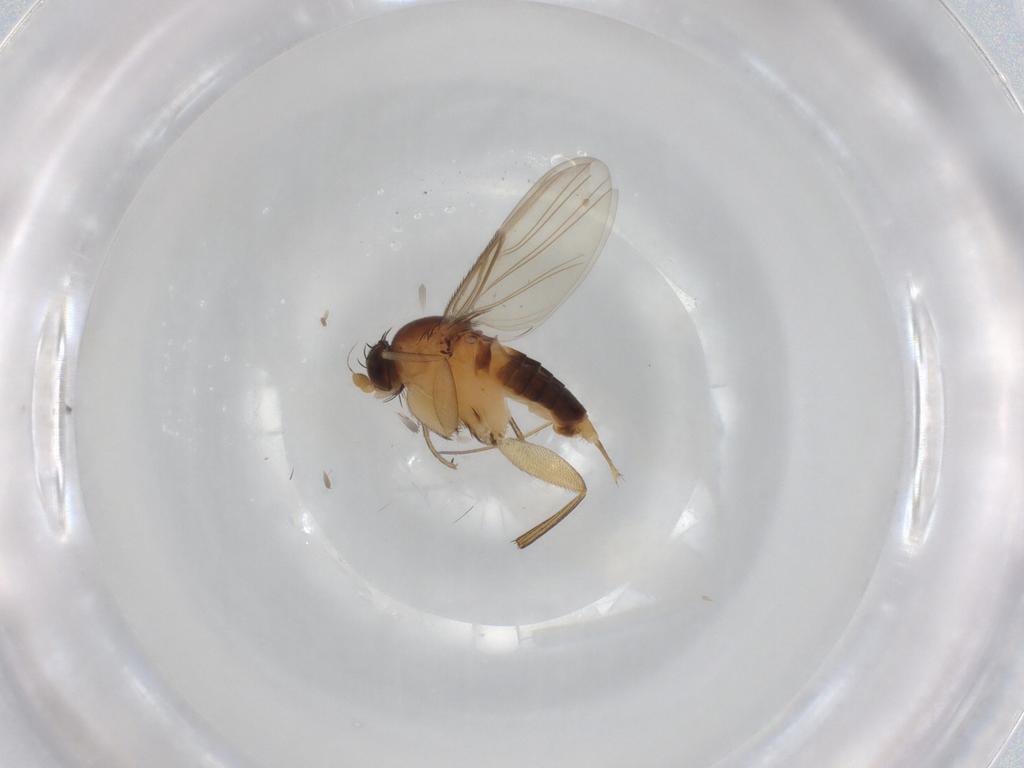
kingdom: Animalia
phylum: Arthropoda
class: Insecta
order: Diptera
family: Phoridae
